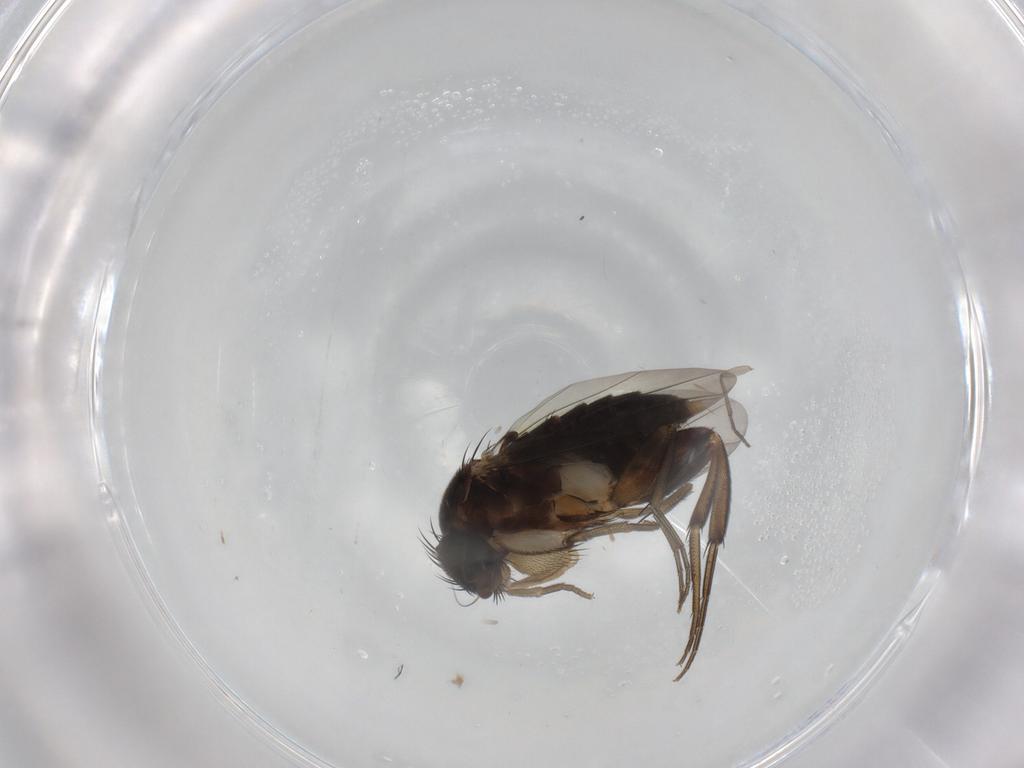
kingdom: Animalia
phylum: Arthropoda
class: Insecta
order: Diptera
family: Phoridae
